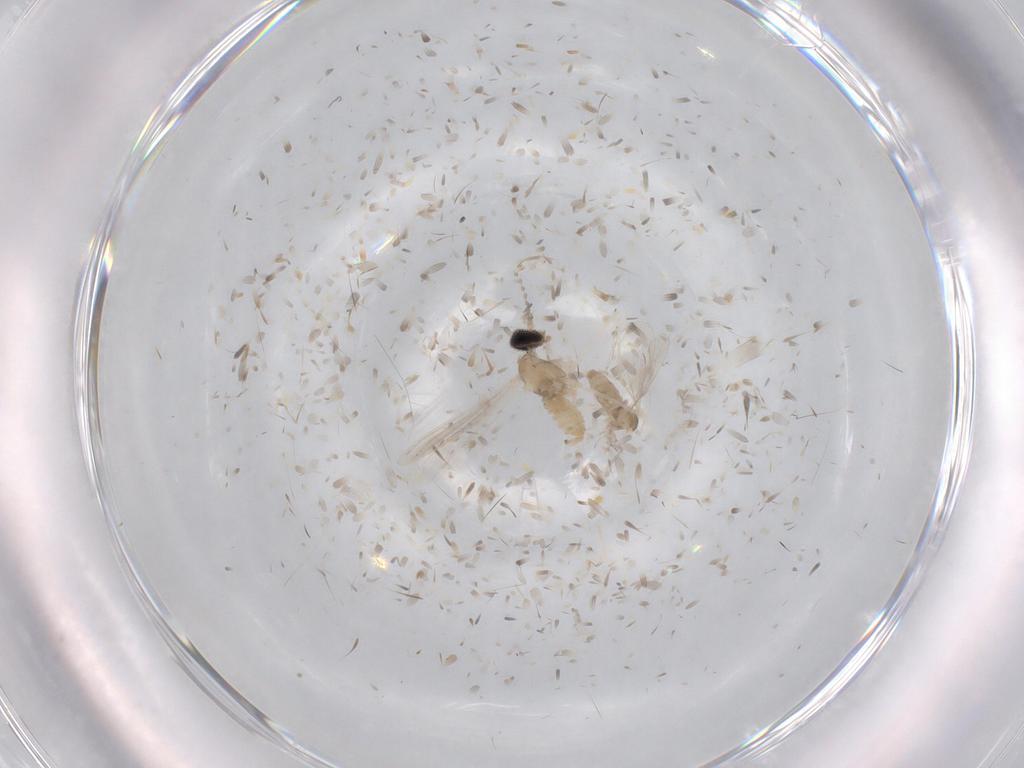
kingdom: Animalia
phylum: Arthropoda
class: Insecta
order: Diptera
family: Cecidomyiidae
